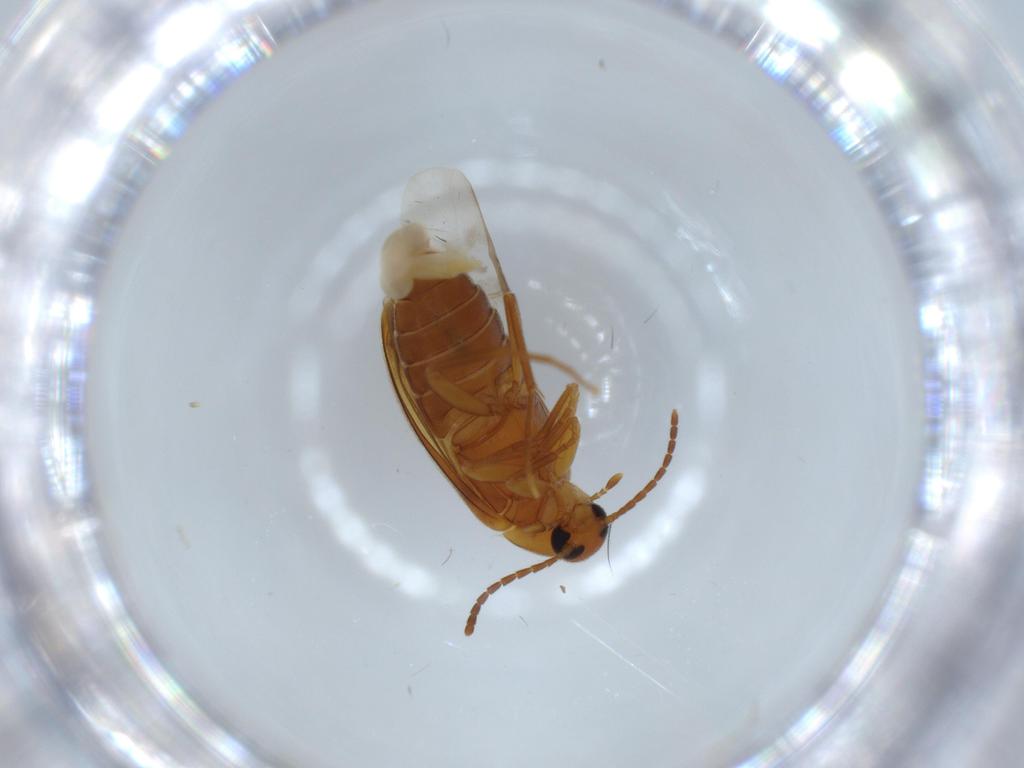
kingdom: Animalia
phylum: Arthropoda
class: Insecta
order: Coleoptera
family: Scraptiidae
